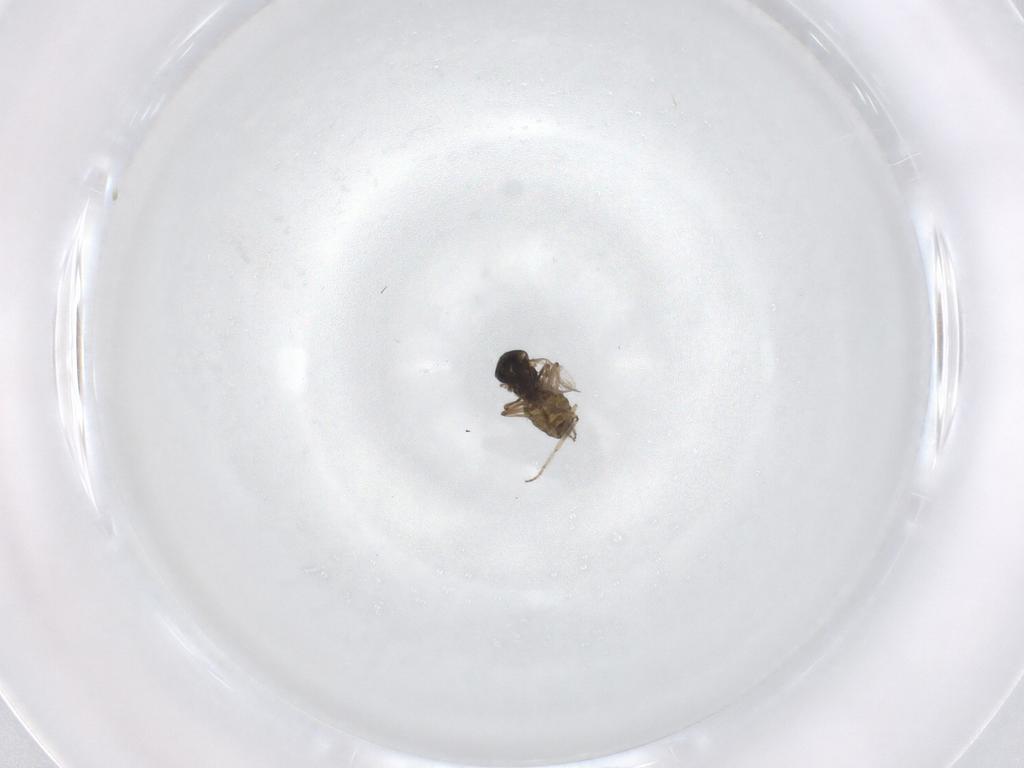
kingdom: Animalia
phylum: Arthropoda
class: Insecta
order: Diptera
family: Ceratopogonidae
